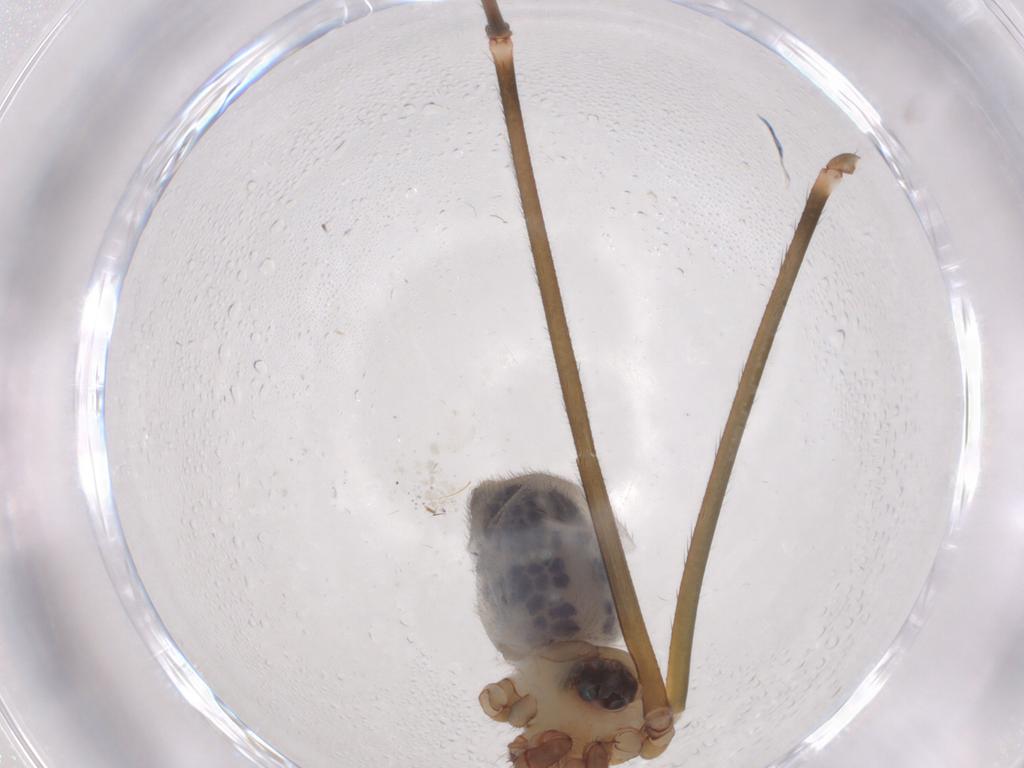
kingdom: Animalia
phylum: Arthropoda
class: Arachnida
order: Araneae
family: Pholcidae
